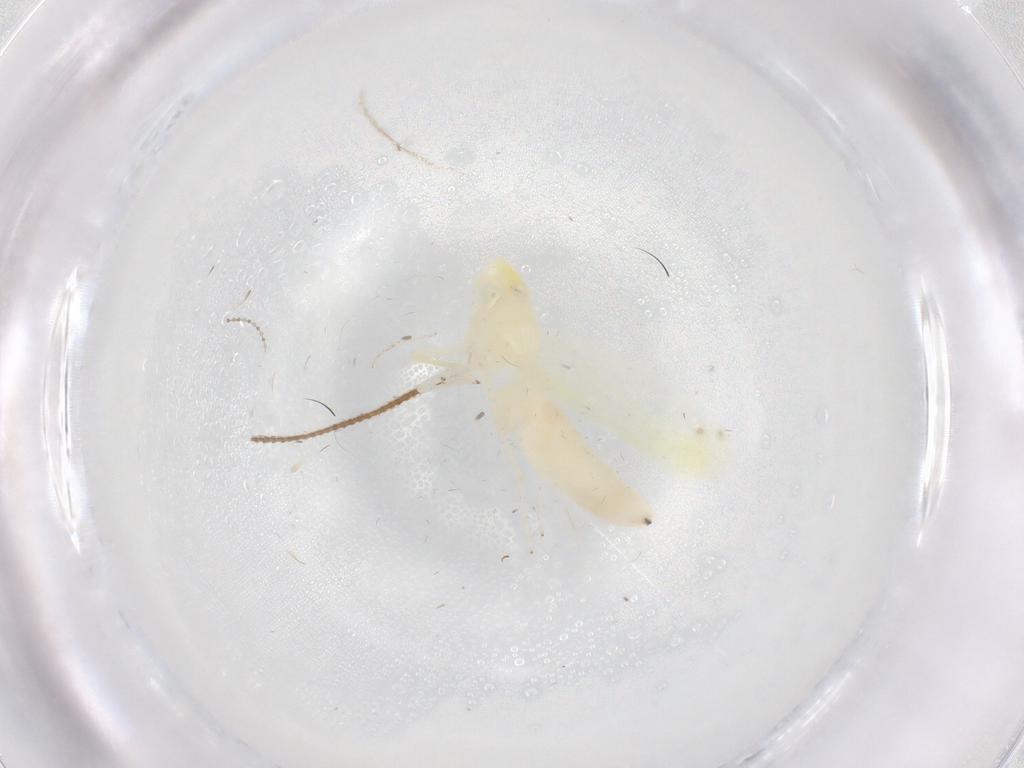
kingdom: Animalia
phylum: Arthropoda
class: Insecta
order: Hemiptera
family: Cicadellidae
